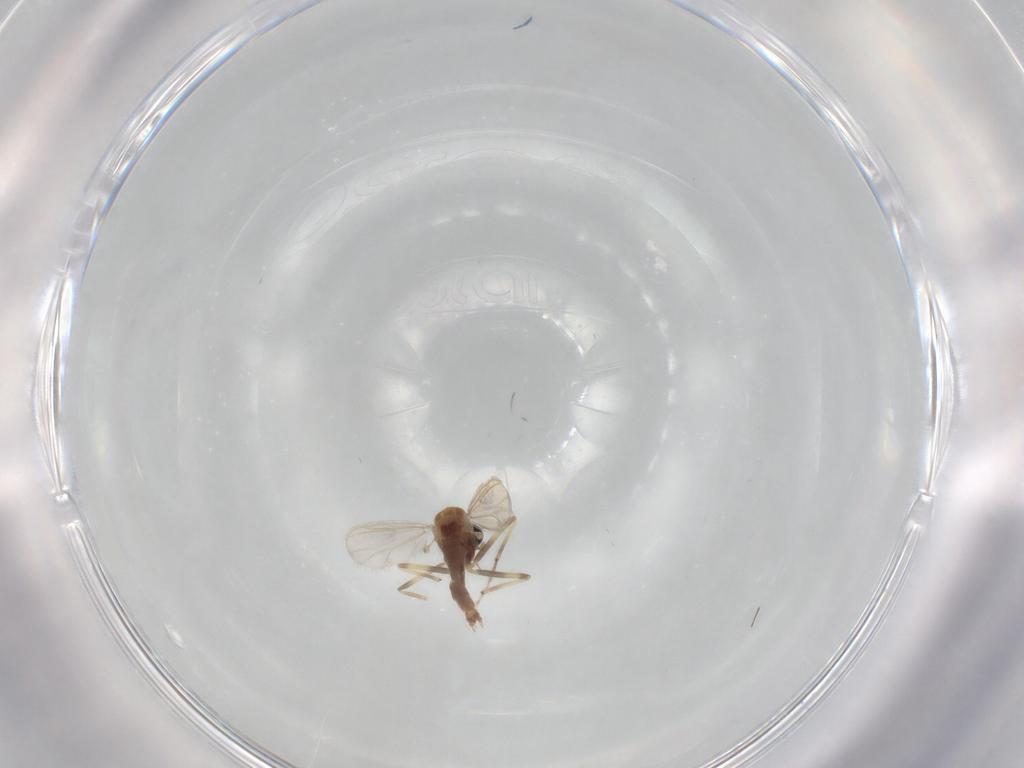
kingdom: Animalia
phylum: Arthropoda
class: Insecta
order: Diptera
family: Chironomidae
